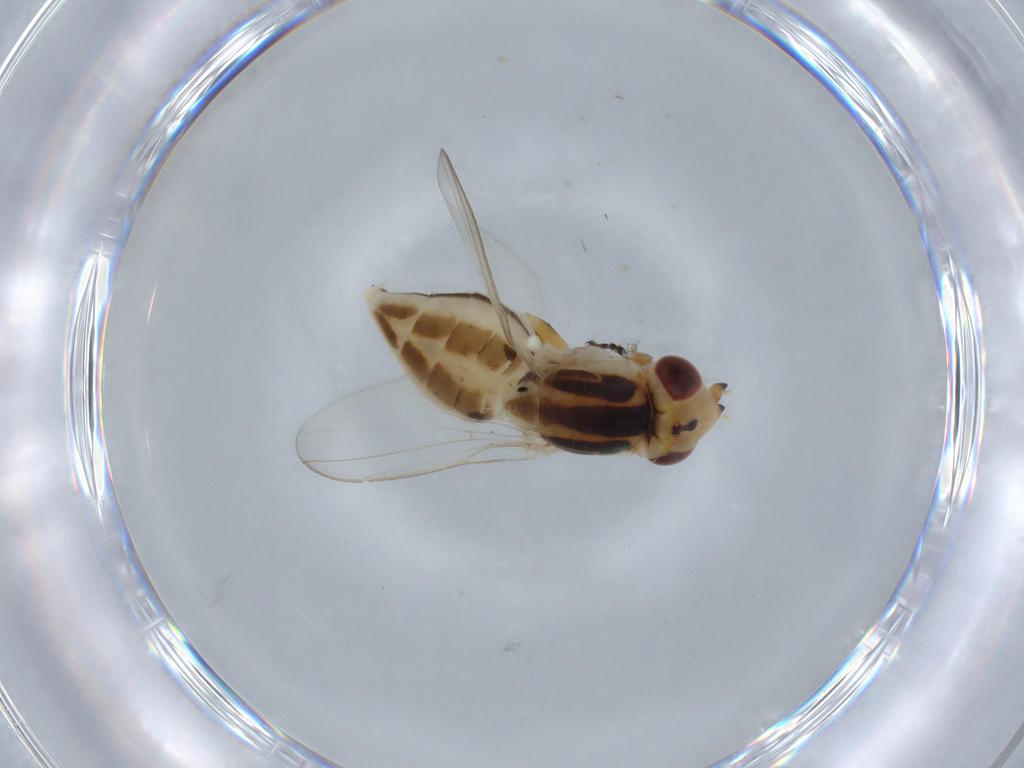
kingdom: Animalia
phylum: Arthropoda
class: Insecta
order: Diptera
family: Chloropidae
